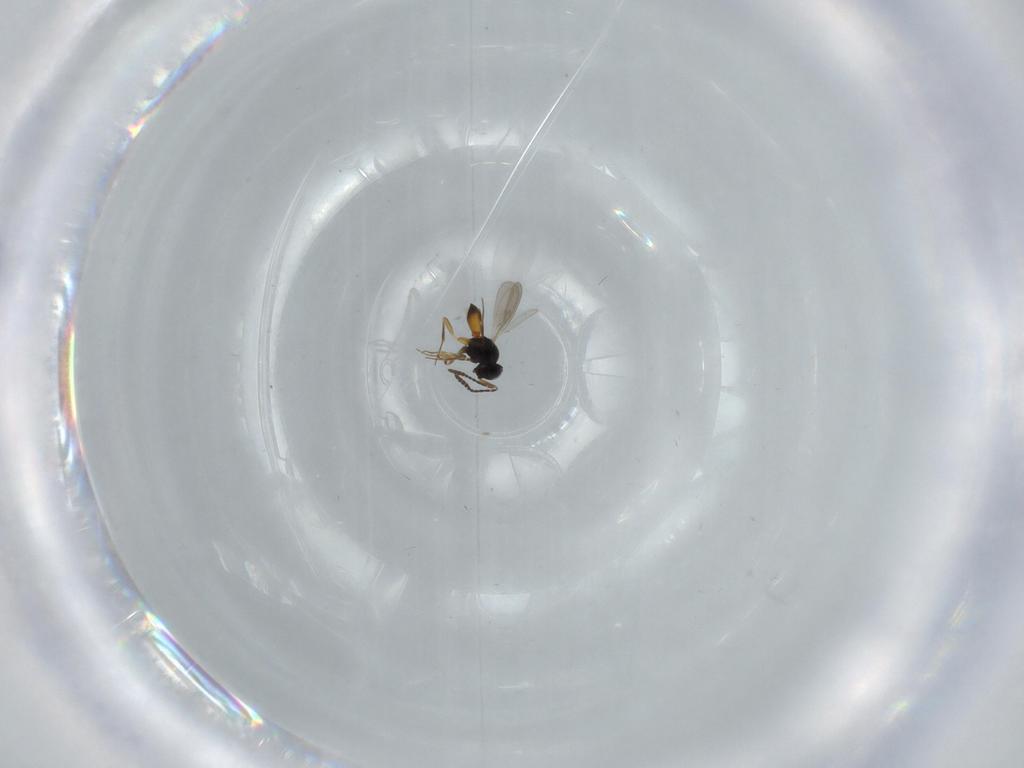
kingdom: Animalia
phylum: Arthropoda
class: Insecta
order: Hymenoptera
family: Scelionidae
